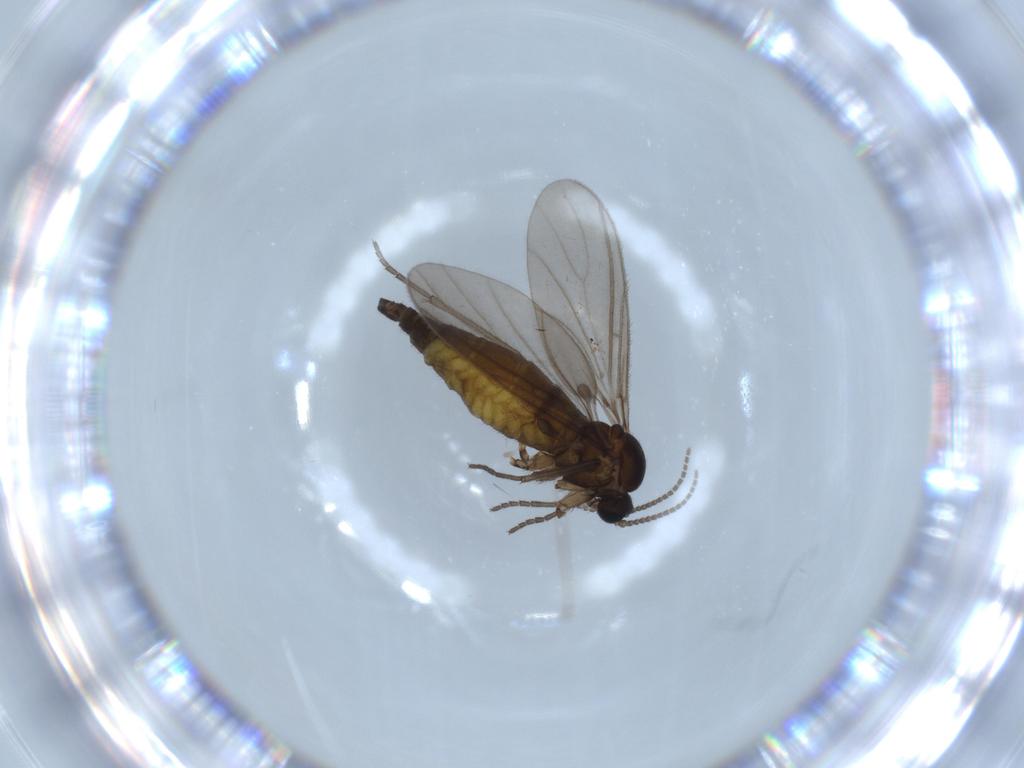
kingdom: Animalia
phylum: Arthropoda
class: Insecta
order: Diptera
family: Sciaridae
